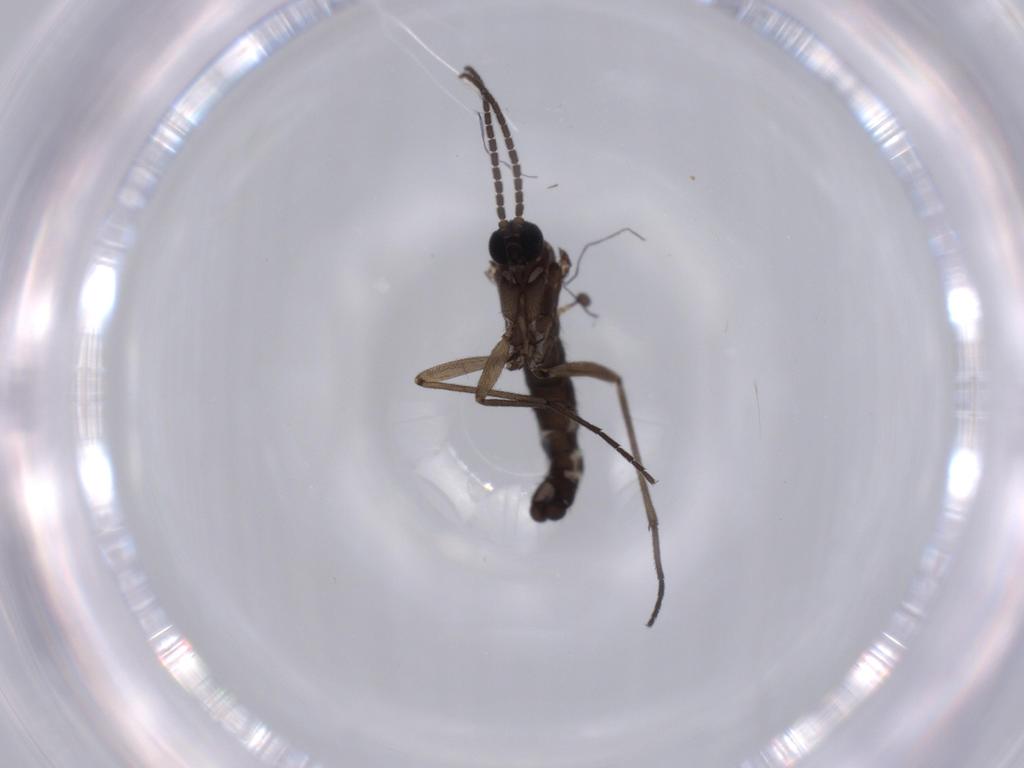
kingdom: Animalia
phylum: Arthropoda
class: Insecta
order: Diptera
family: Sciaridae
